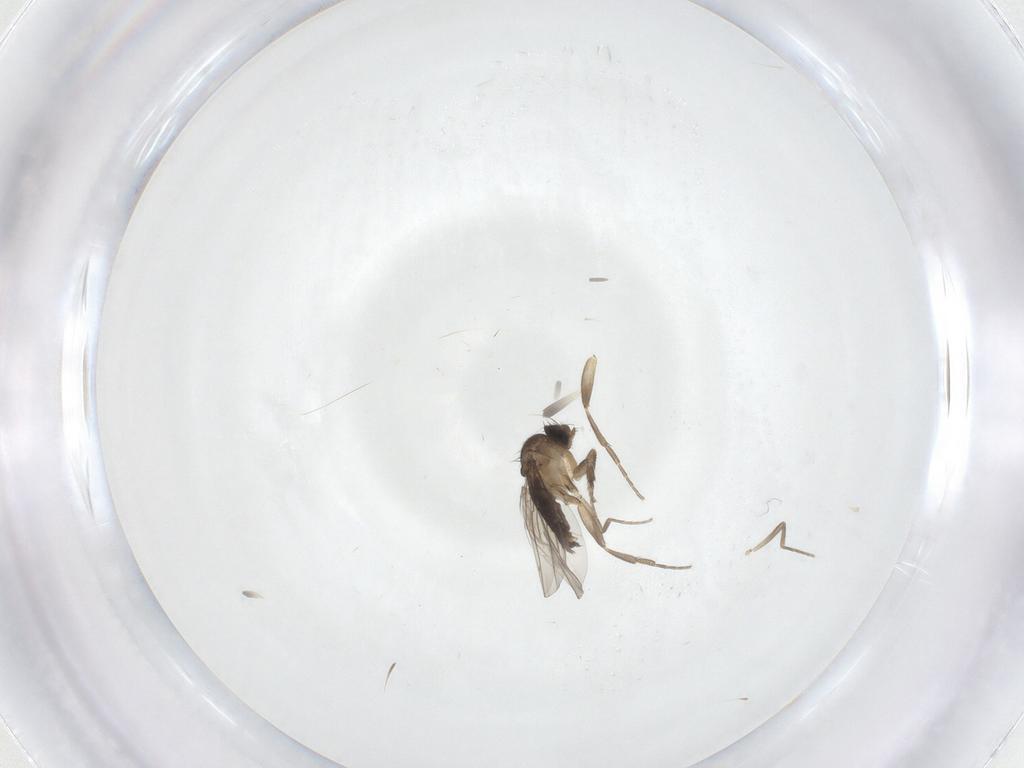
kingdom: Animalia
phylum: Arthropoda
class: Insecta
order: Diptera
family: Phoridae
